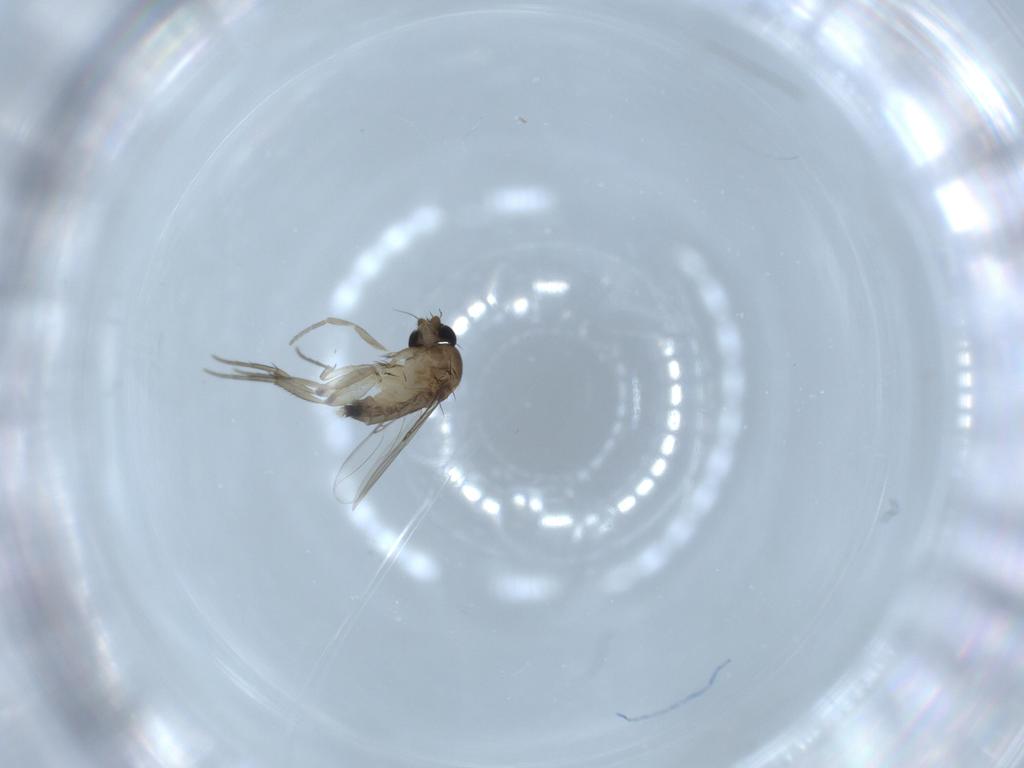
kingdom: Animalia
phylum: Arthropoda
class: Insecta
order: Diptera
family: Phoridae
